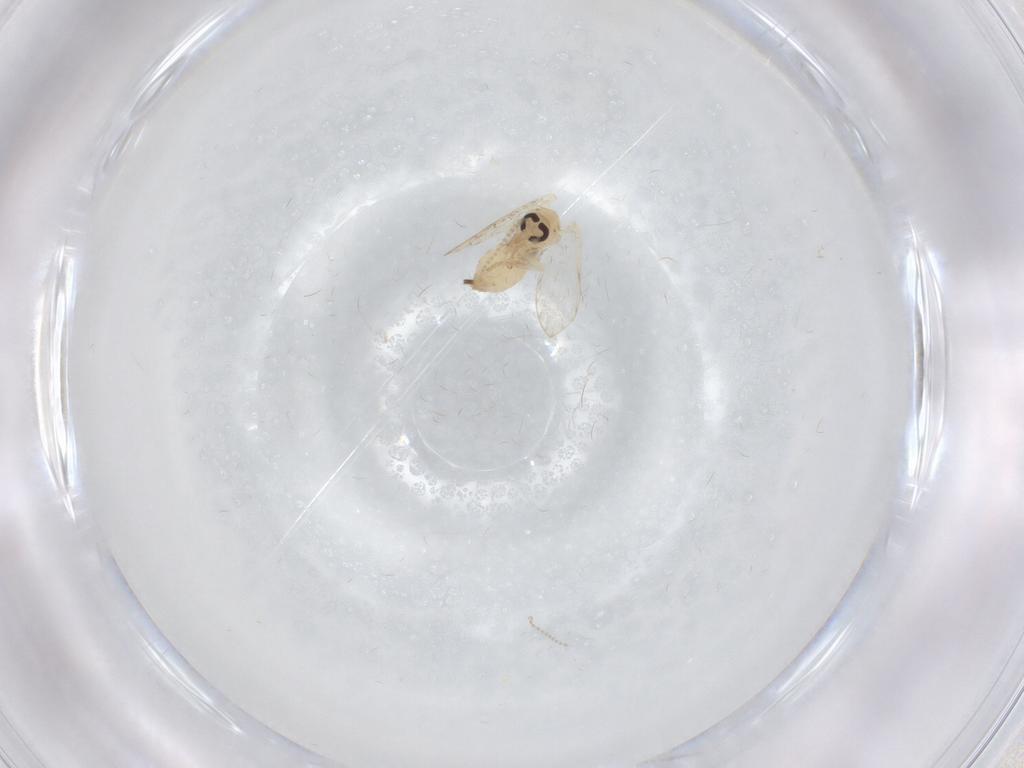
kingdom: Animalia
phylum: Arthropoda
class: Insecta
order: Diptera
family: Psychodidae
